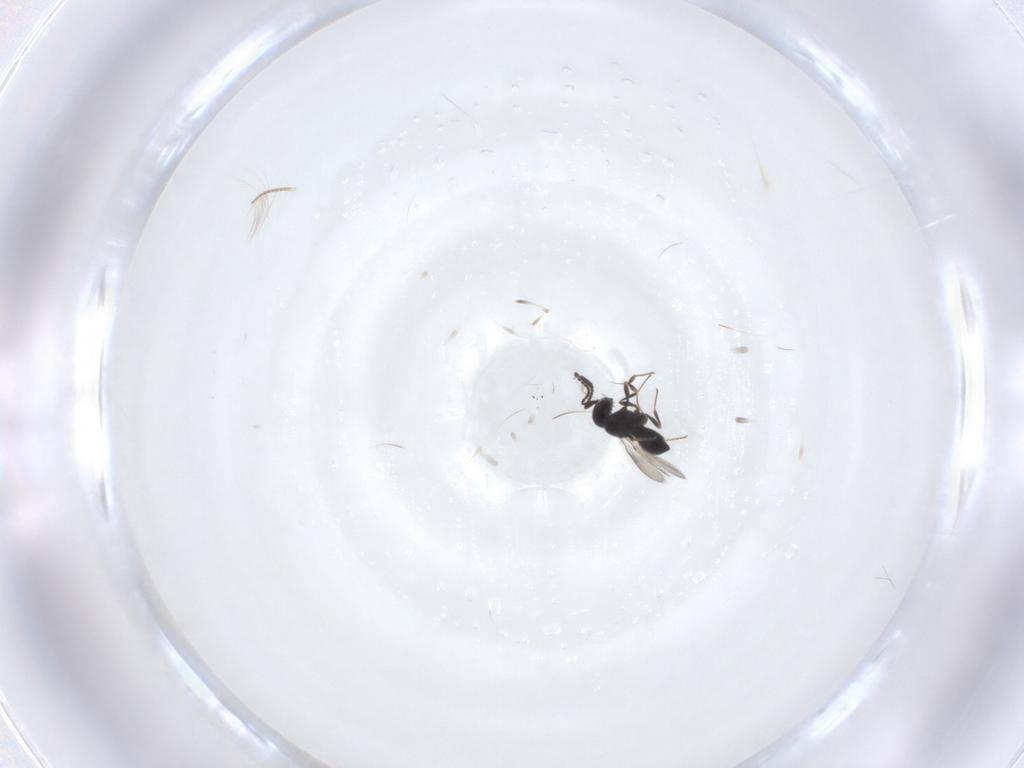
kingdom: Animalia
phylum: Arthropoda
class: Insecta
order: Hymenoptera
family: Scelionidae
